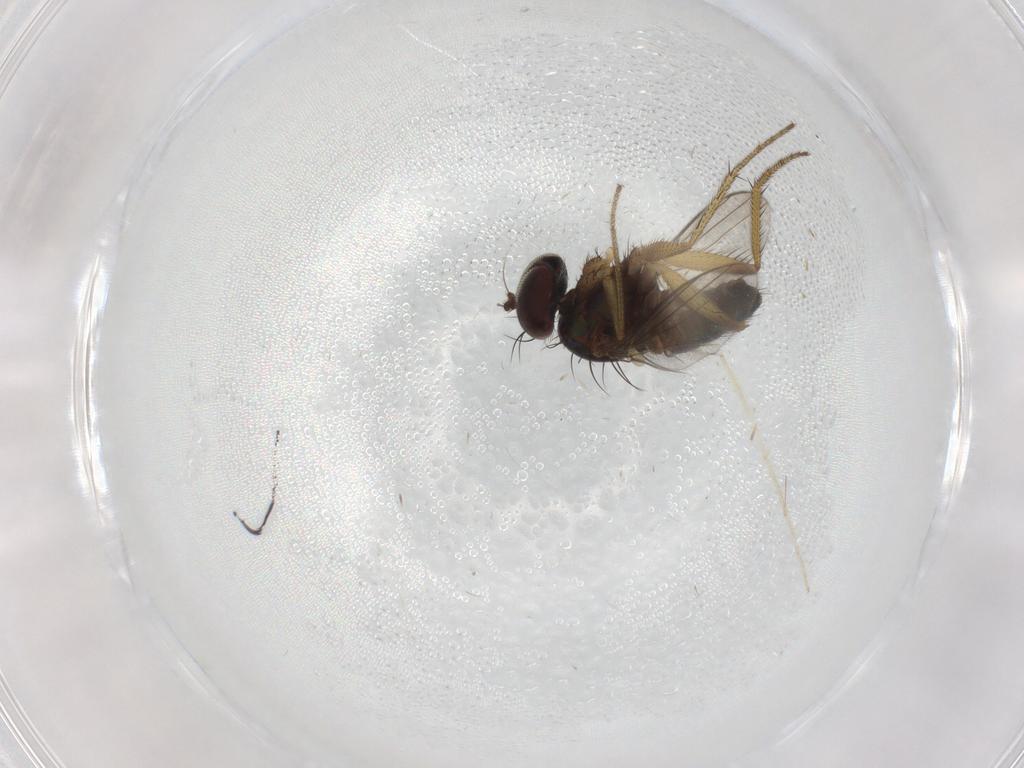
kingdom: Animalia
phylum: Arthropoda
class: Insecta
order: Diptera
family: Chironomidae
